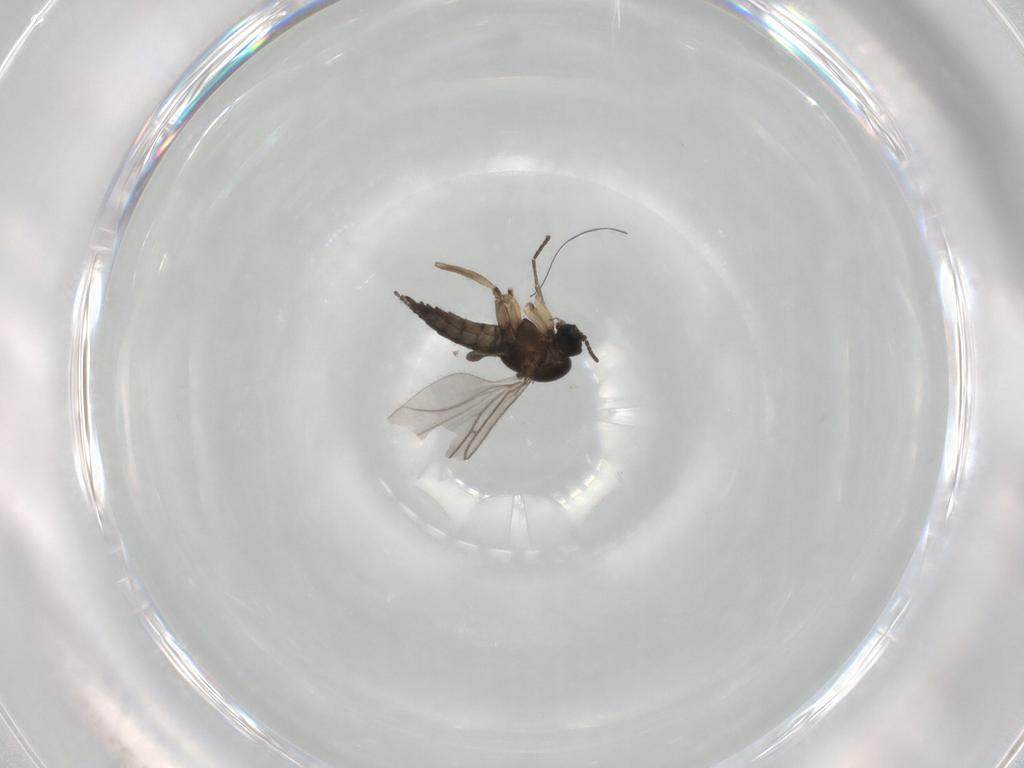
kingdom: Animalia
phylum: Arthropoda
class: Insecta
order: Diptera
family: Sciaridae
